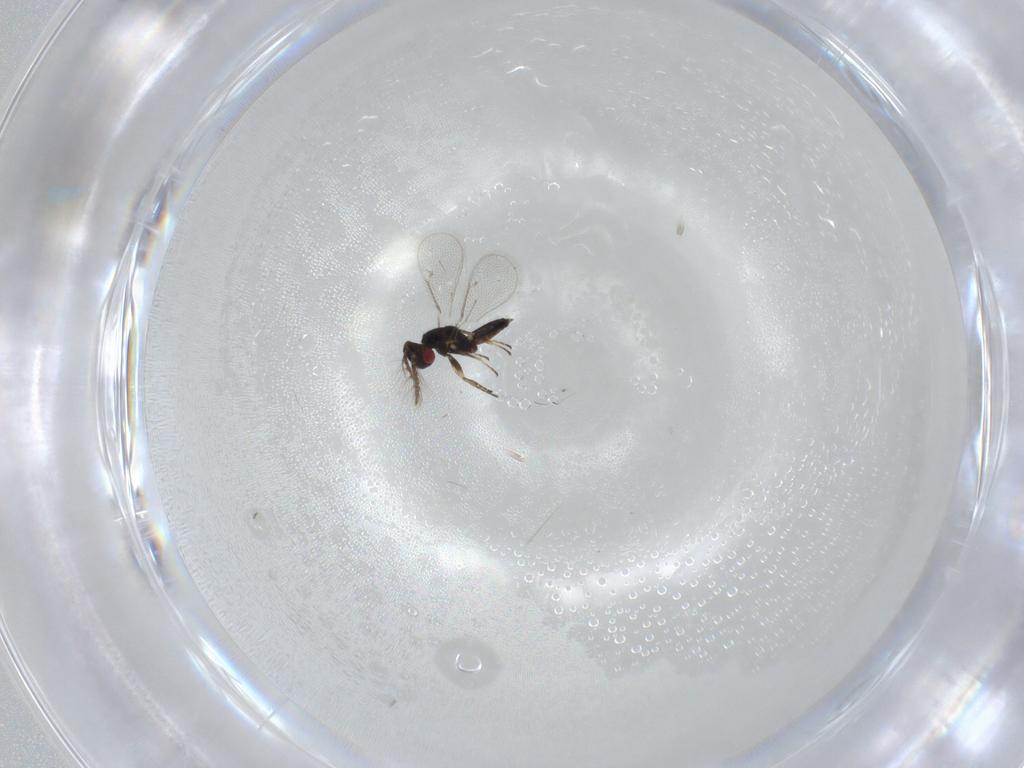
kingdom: Animalia
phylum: Arthropoda
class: Insecta
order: Hymenoptera
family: Eulophidae
